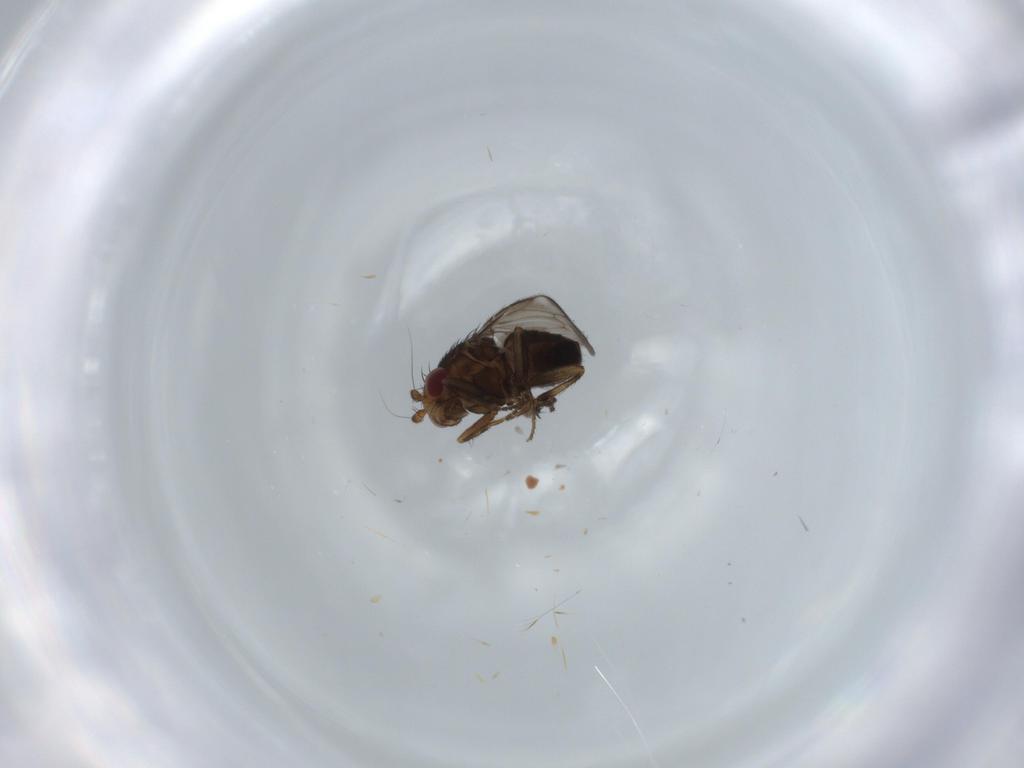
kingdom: Animalia
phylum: Arthropoda
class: Insecta
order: Diptera
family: Sphaeroceridae
